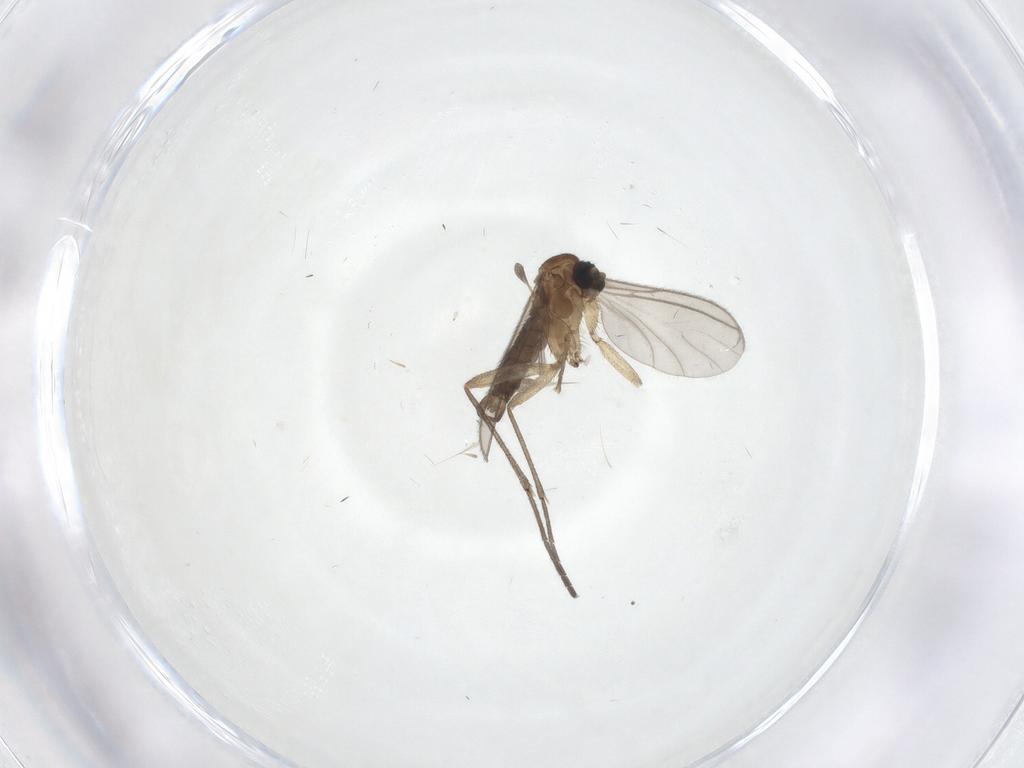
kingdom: Animalia
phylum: Arthropoda
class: Insecta
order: Diptera
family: Sciaridae
